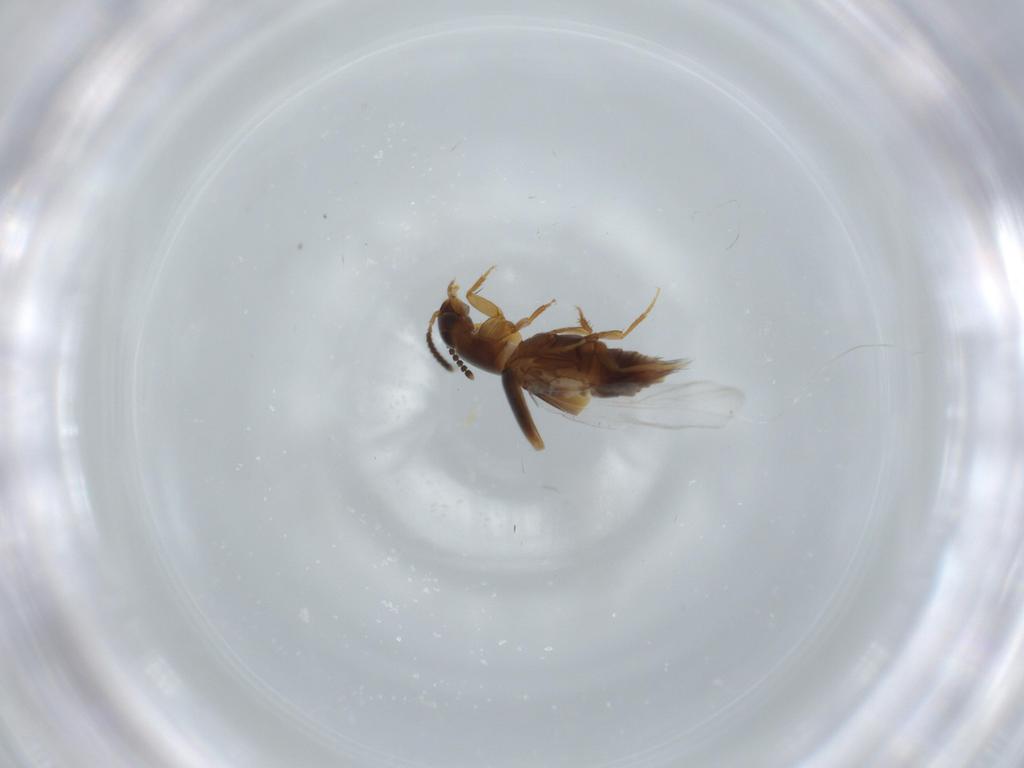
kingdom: Animalia
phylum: Arthropoda
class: Insecta
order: Coleoptera
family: Staphylinidae
